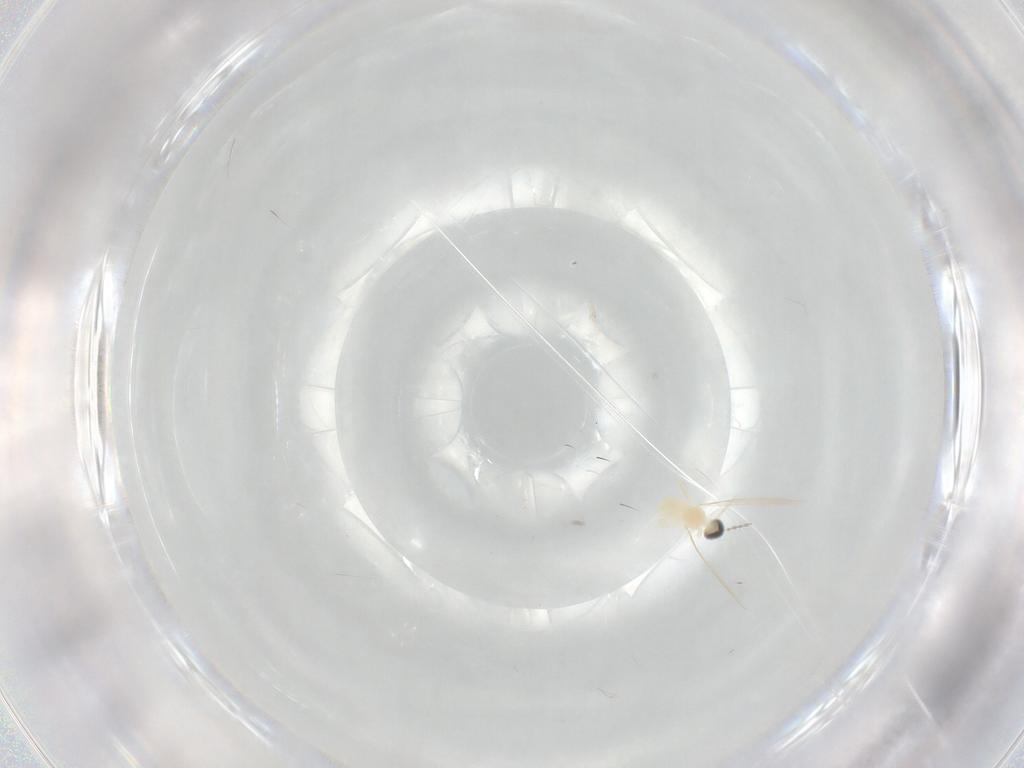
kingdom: Animalia
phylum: Arthropoda
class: Insecta
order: Diptera
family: Cecidomyiidae
